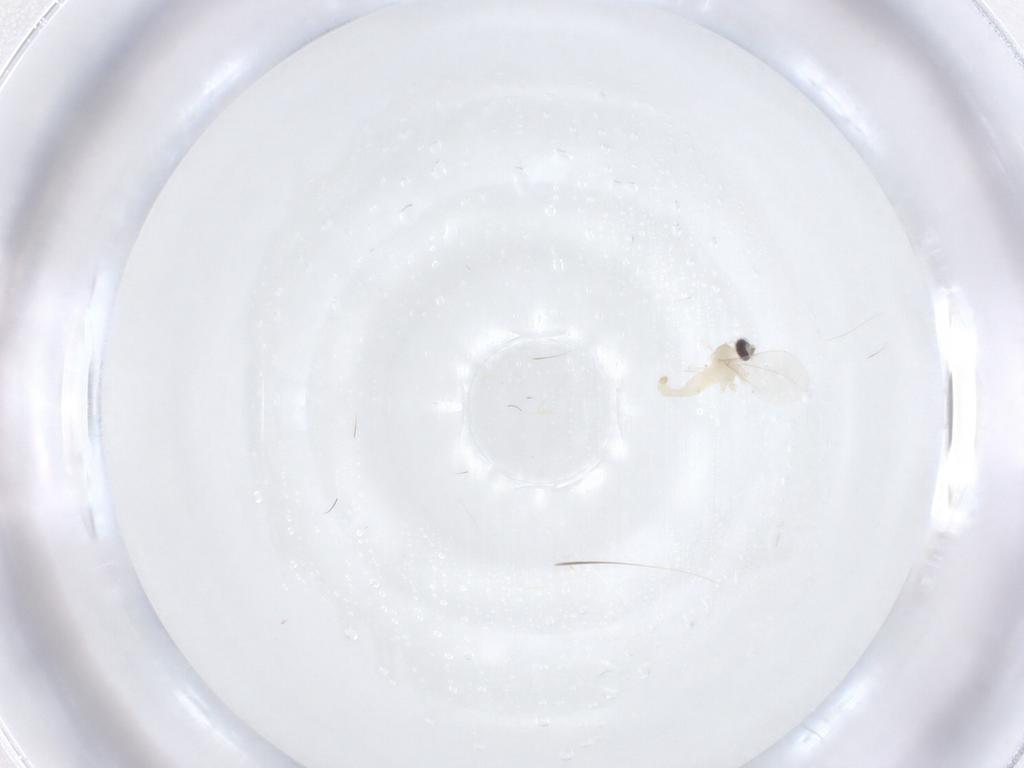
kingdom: Animalia
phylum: Arthropoda
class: Insecta
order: Diptera
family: Cecidomyiidae
